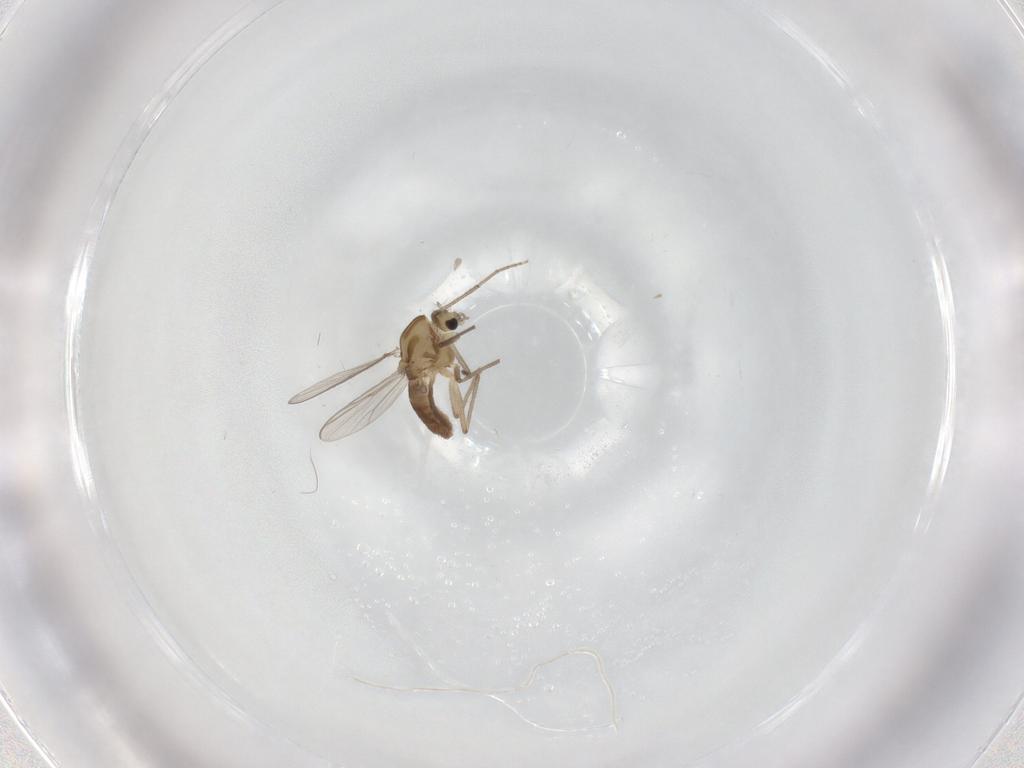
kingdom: Animalia
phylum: Arthropoda
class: Insecta
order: Diptera
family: Chironomidae
